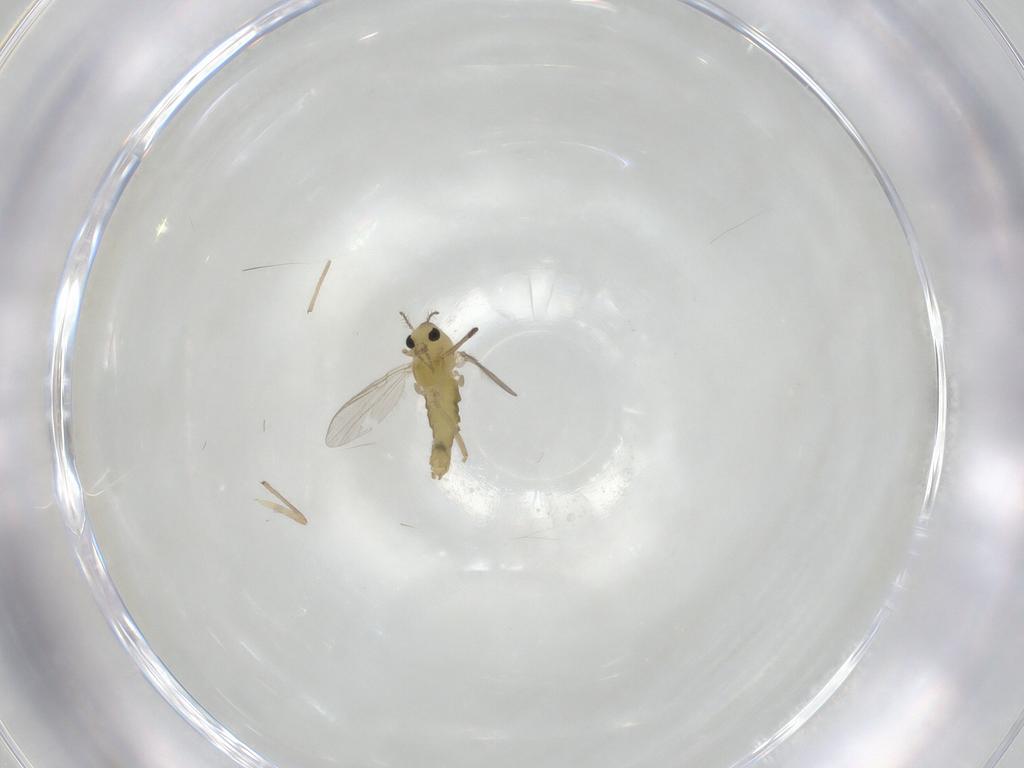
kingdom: Animalia
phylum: Arthropoda
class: Insecta
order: Diptera
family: Chironomidae
